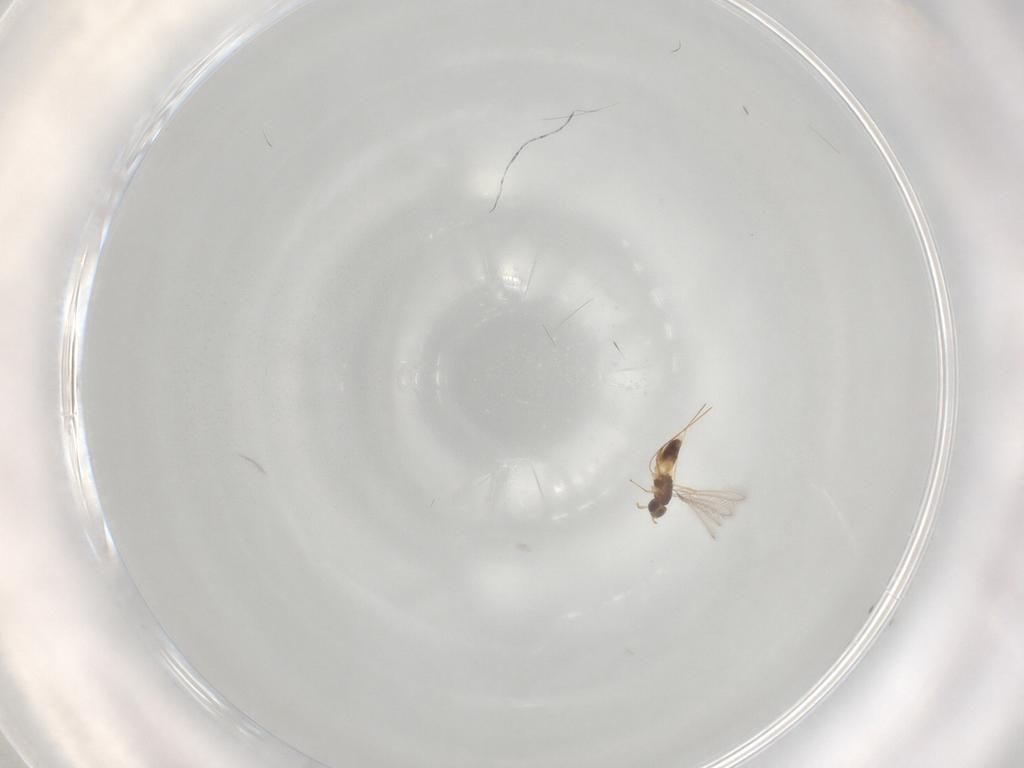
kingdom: Animalia
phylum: Arthropoda
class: Insecta
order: Hymenoptera
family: Mymaridae
